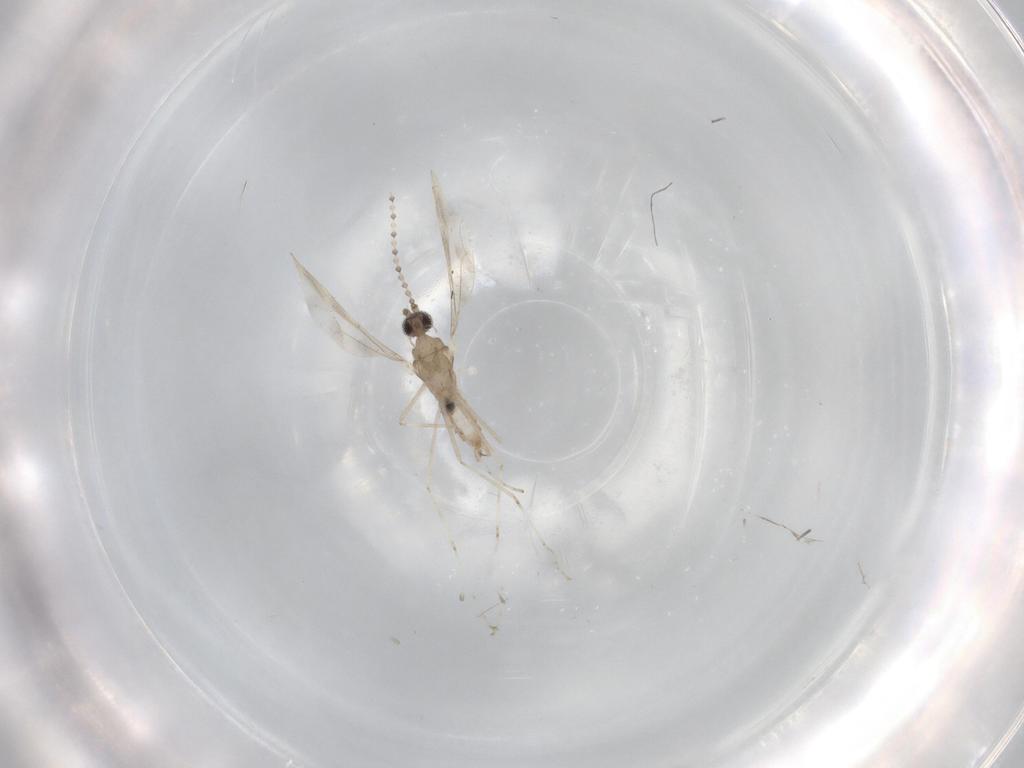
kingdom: Animalia
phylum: Arthropoda
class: Insecta
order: Diptera
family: Cecidomyiidae
